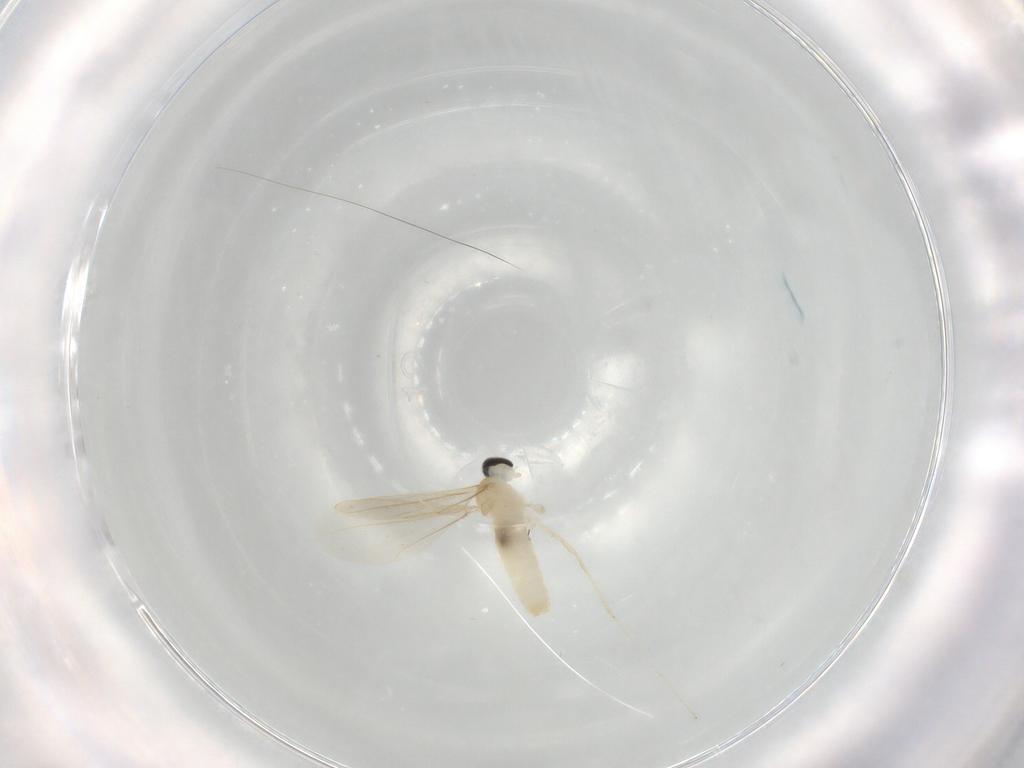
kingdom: Animalia
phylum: Arthropoda
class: Insecta
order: Diptera
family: Cecidomyiidae
